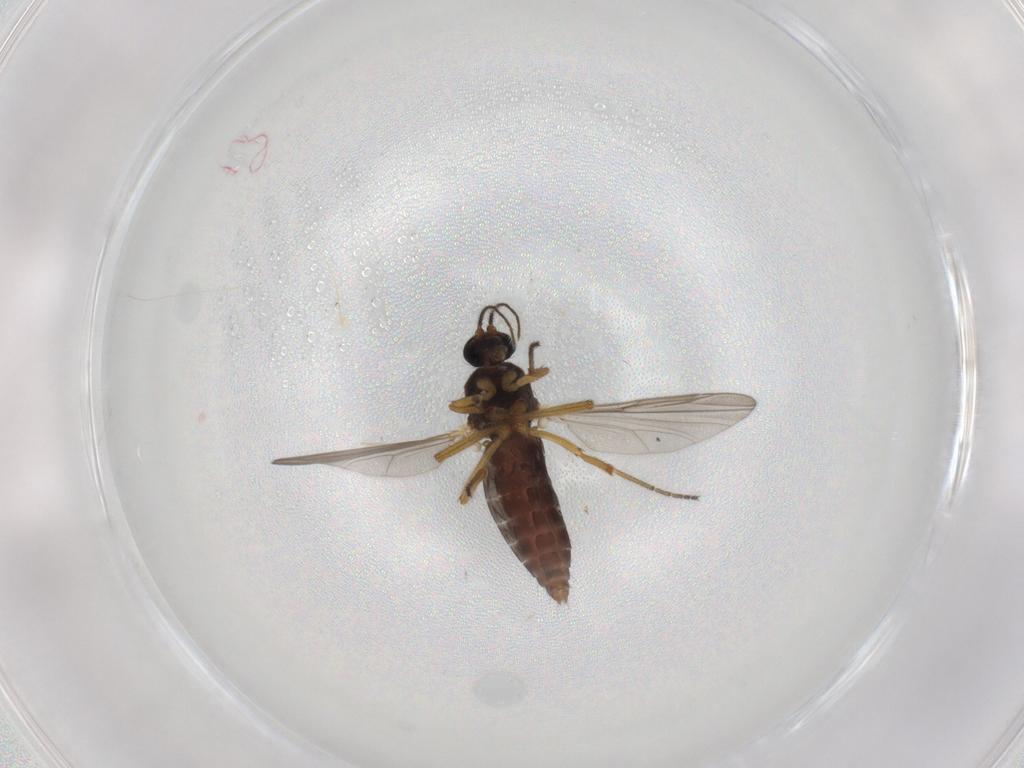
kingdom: Animalia
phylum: Arthropoda
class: Insecta
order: Diptera
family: Ceratopogonidae
